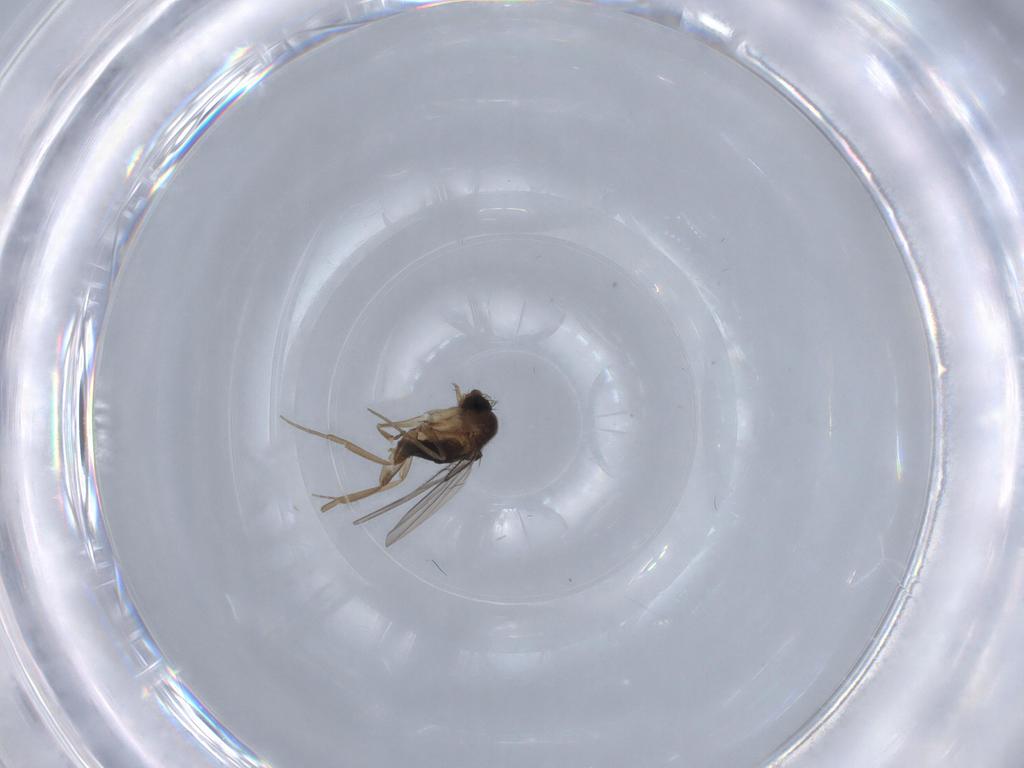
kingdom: Animalia
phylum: Arthropoda
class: Insecta
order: Diptera
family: Phoridae
